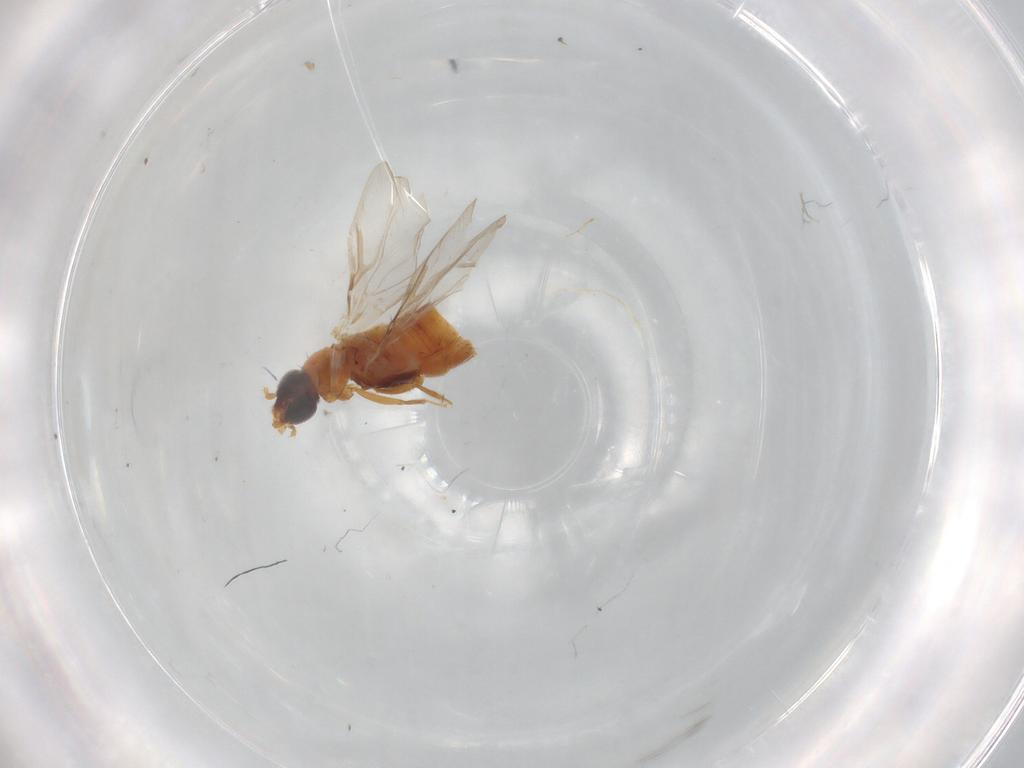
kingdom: Animalia
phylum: Arthropoda
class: Insecta
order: Coleoptera
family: Staphylinidae
